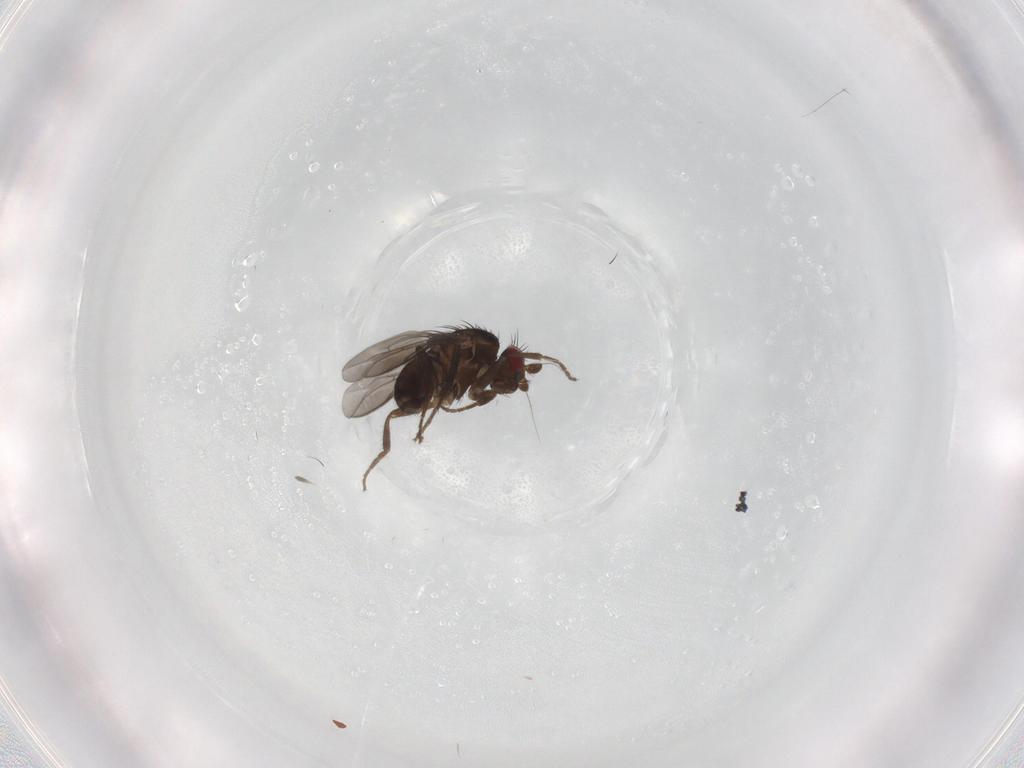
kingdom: Animalia
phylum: Arthropoda
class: Insecta
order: Diptera
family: Sphaeroceridae
